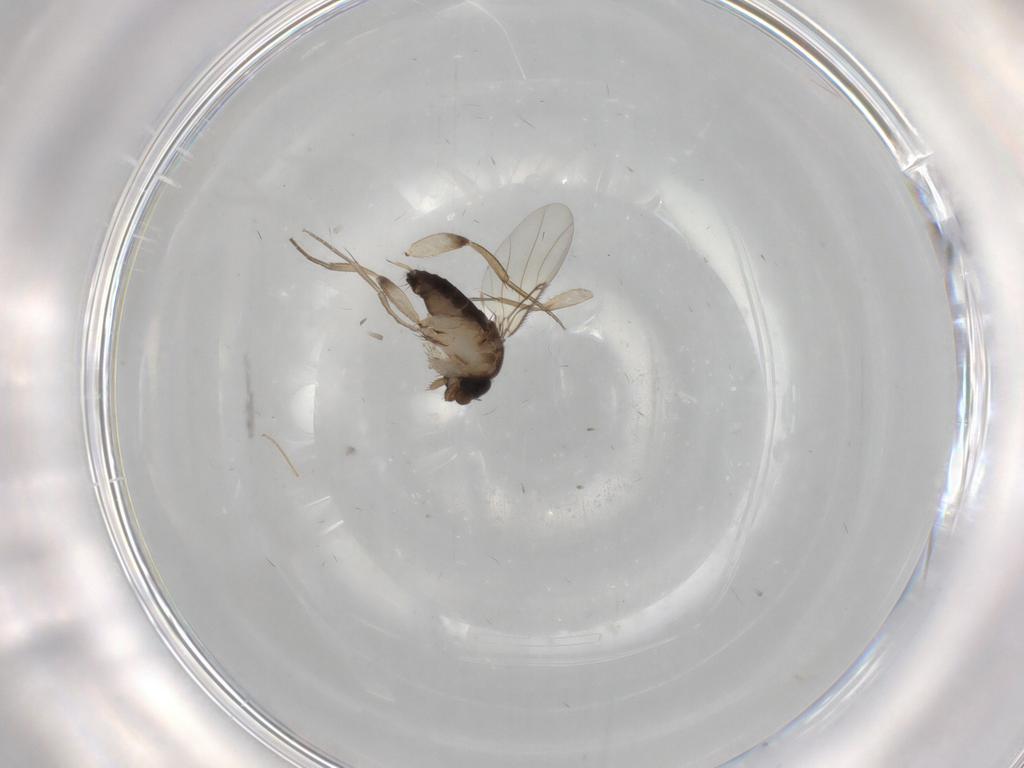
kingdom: Animalia
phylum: Arthropoda
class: Insecta
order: Diptera
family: Phoridae
